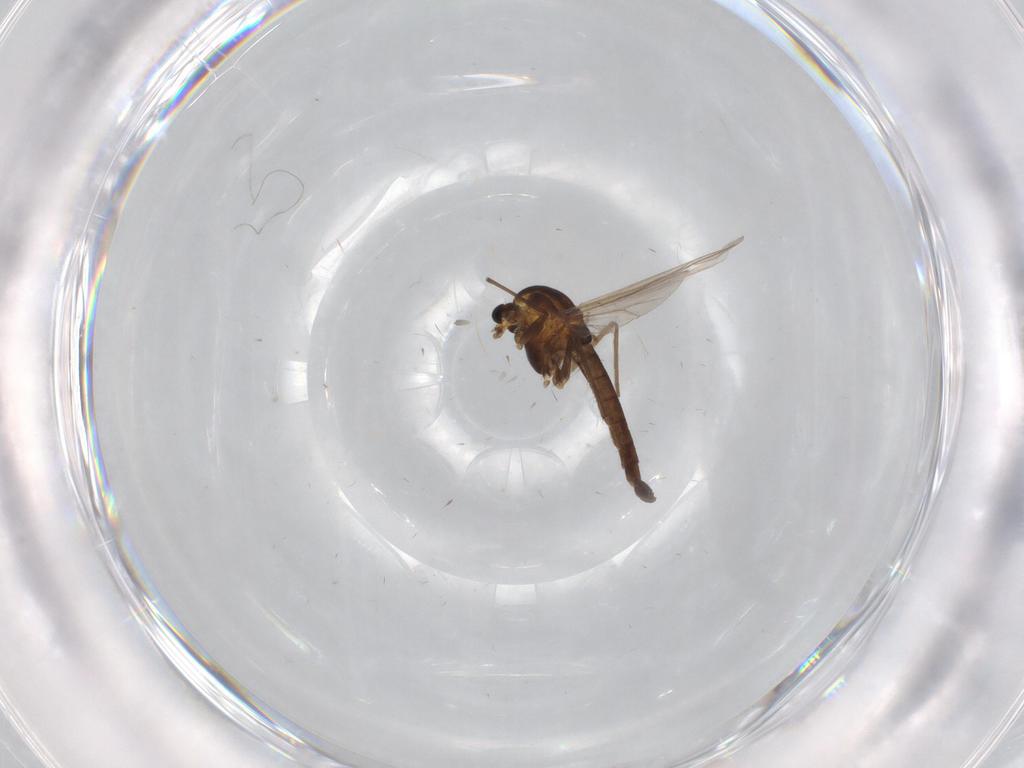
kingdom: Animalia
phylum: Arthropoda
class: Insecta
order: Diptera
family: Chironomidae
